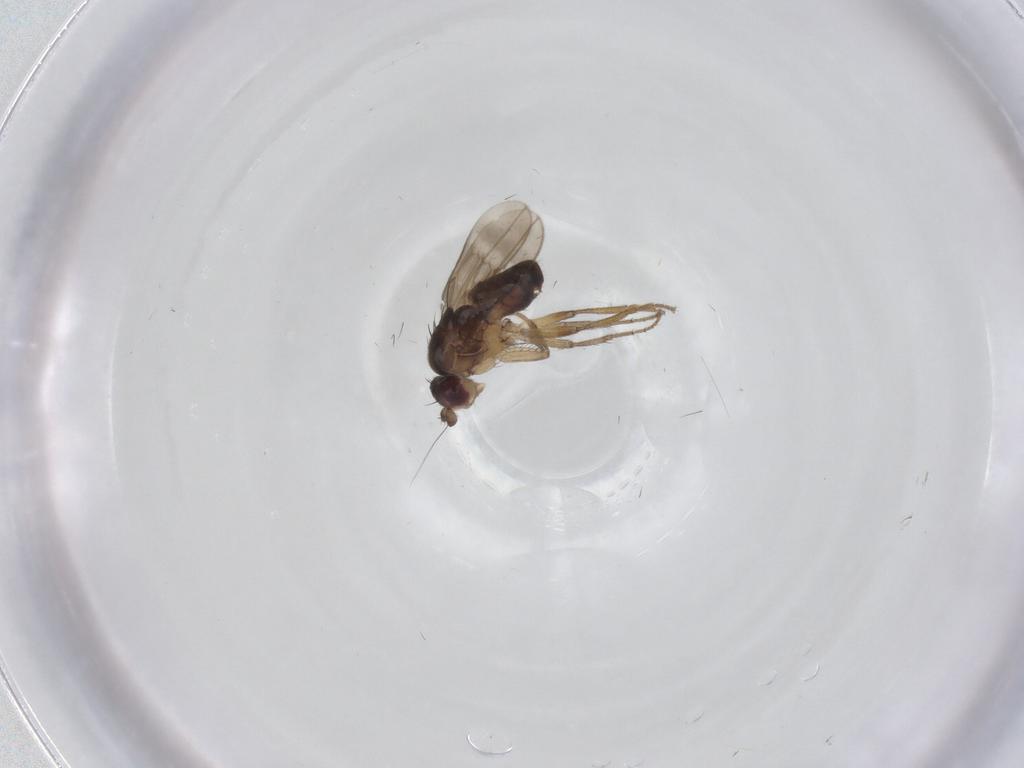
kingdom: Animalia
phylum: Arthropoda
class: Insecta
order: Diptera
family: Sphaeroceridae
